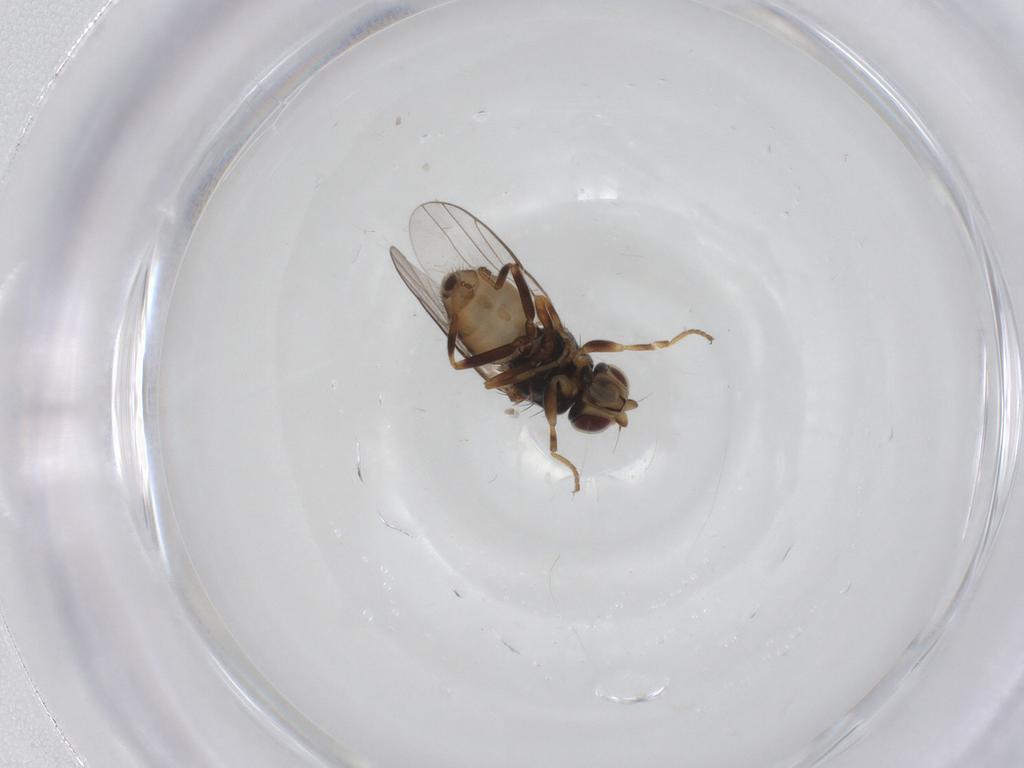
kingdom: Animalia
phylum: Arthropoda
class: Insecta
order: Diptera
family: Chloropidae
